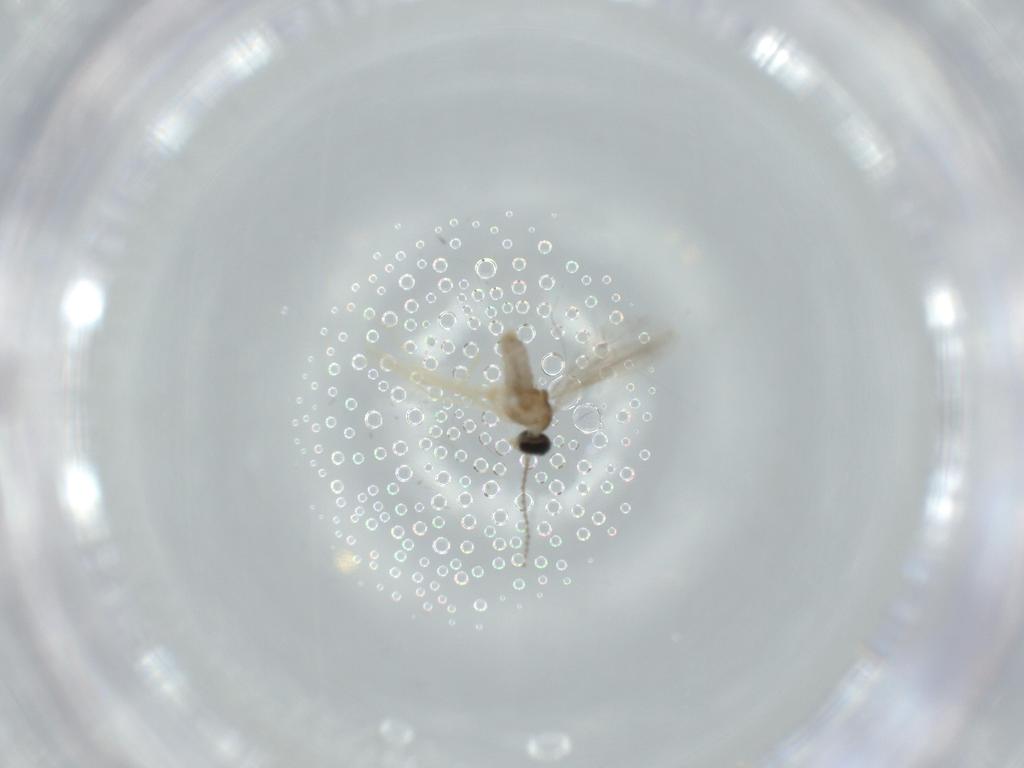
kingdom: Animalia
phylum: Arthropoda
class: Insecta
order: Diptera
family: Cecidomyiidae
